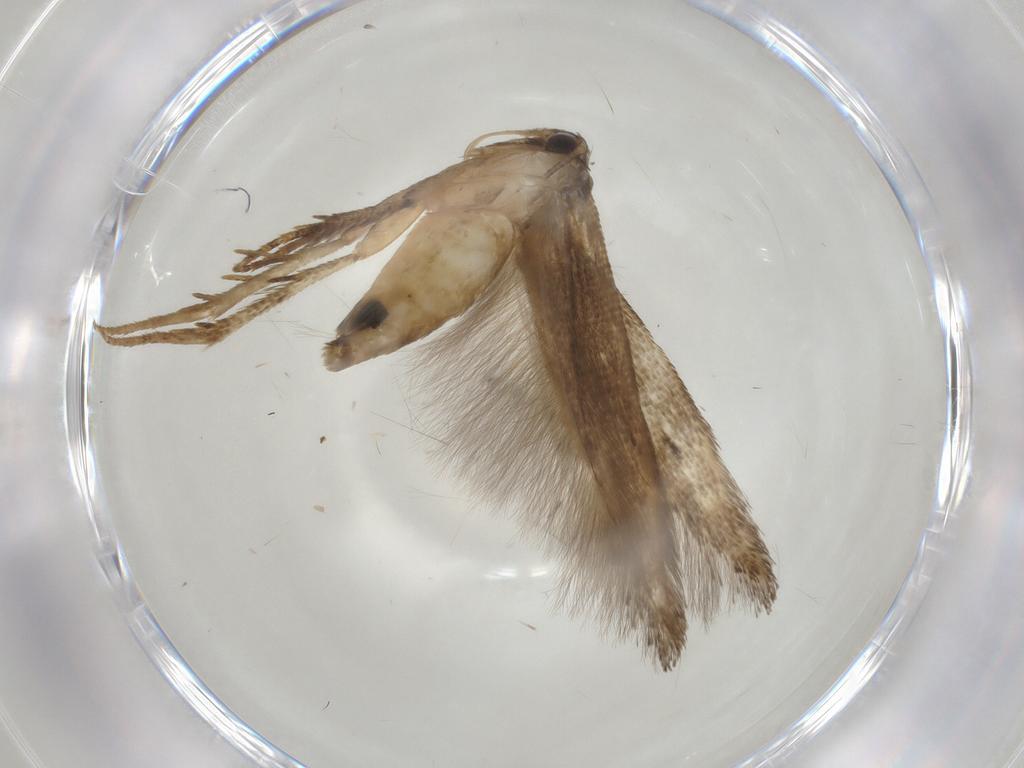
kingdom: Animalia
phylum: Arthropoda
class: Insecta
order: Lepidoptera
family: Cosmopterigidae
